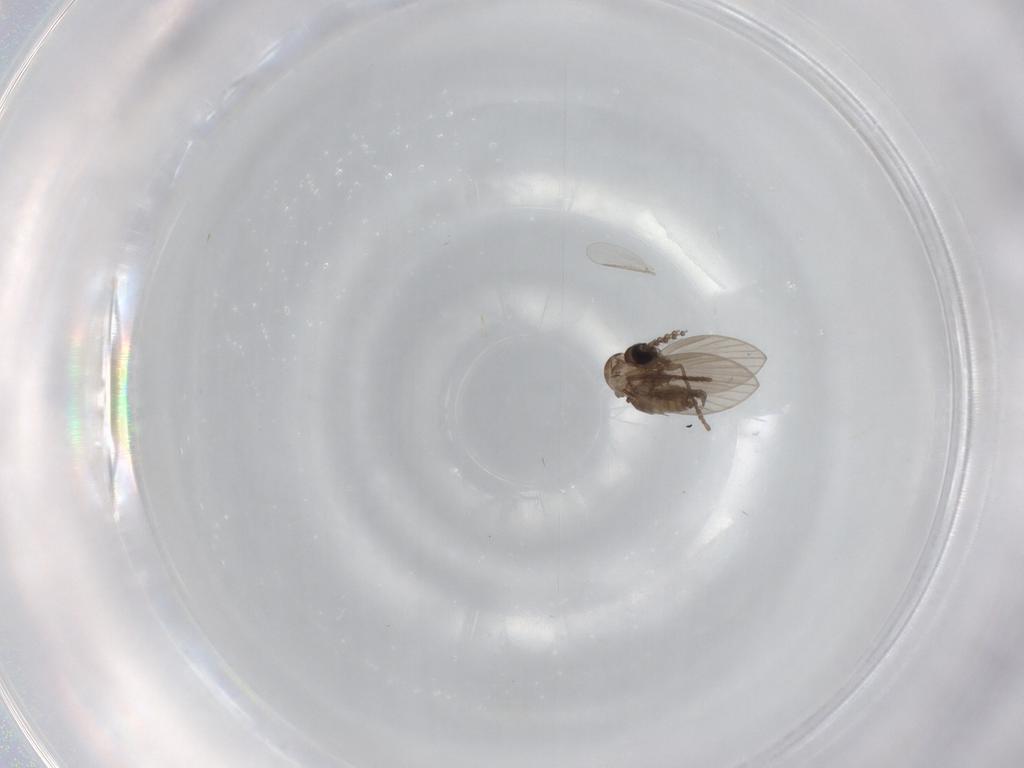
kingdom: Animalia
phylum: Arthropoda
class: Insecta
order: Diptera
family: Psychodidae
